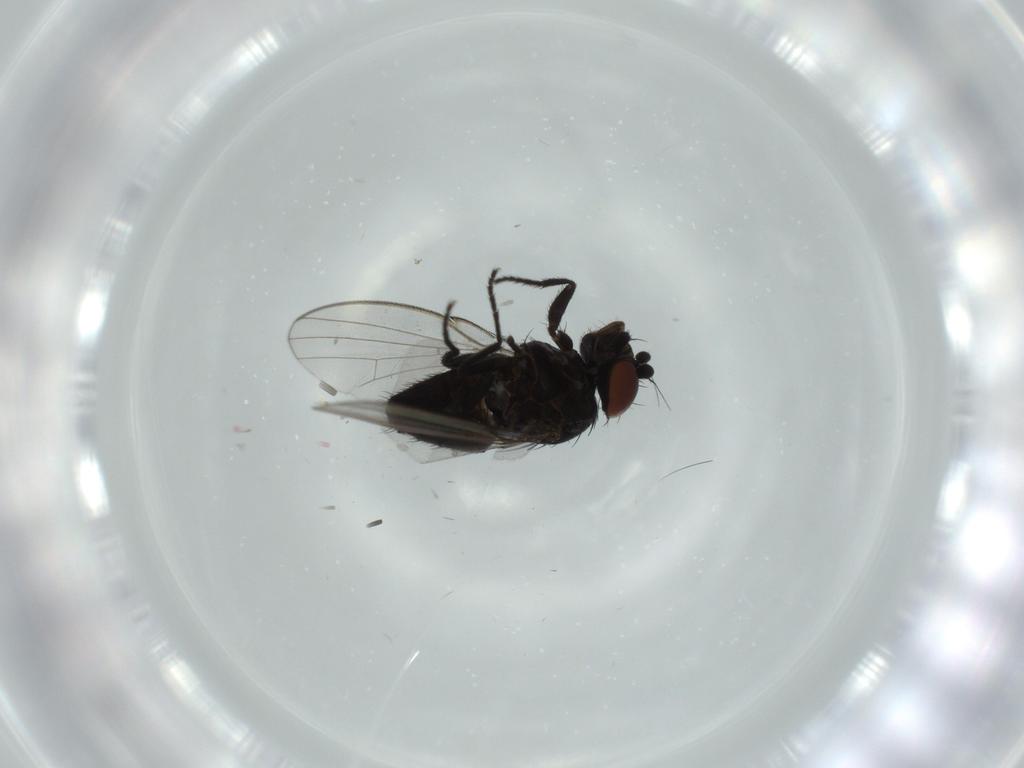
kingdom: Animalia
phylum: Arthropoda
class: Insecta
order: Diptera
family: Milichiidae
